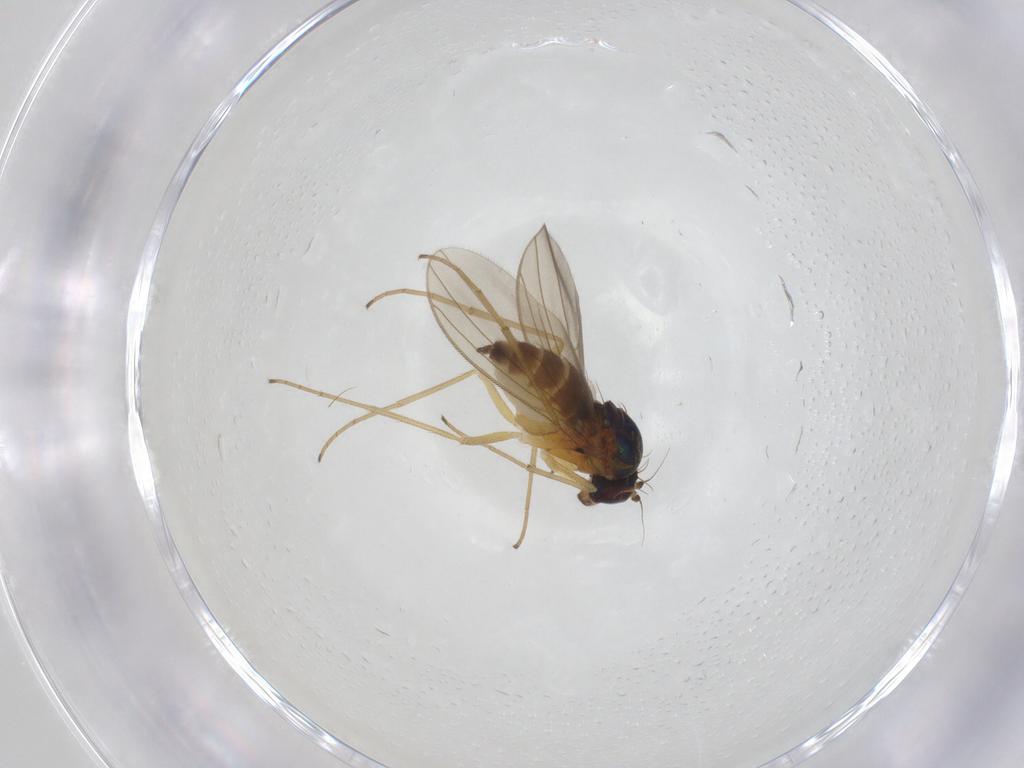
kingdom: Animalia
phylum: Arthropoda
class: Insecta
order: Diptera
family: Dolichopodidae
